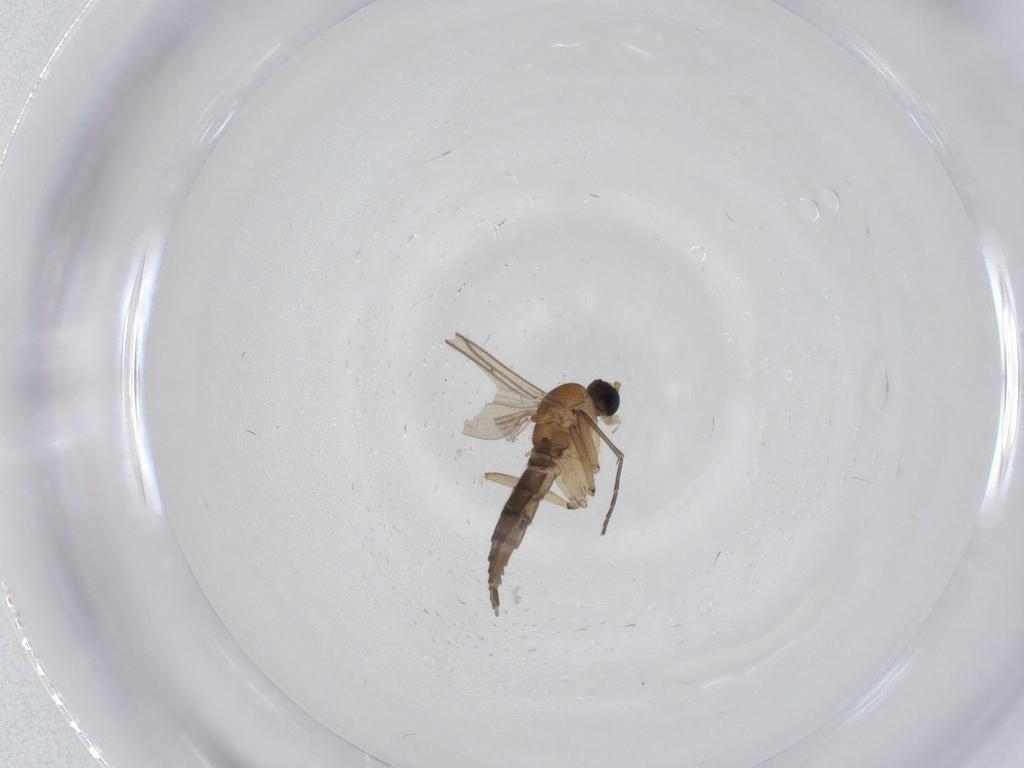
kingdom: Animalia
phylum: Arthropoda
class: Insecta
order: Diptera
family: Sciaridae
